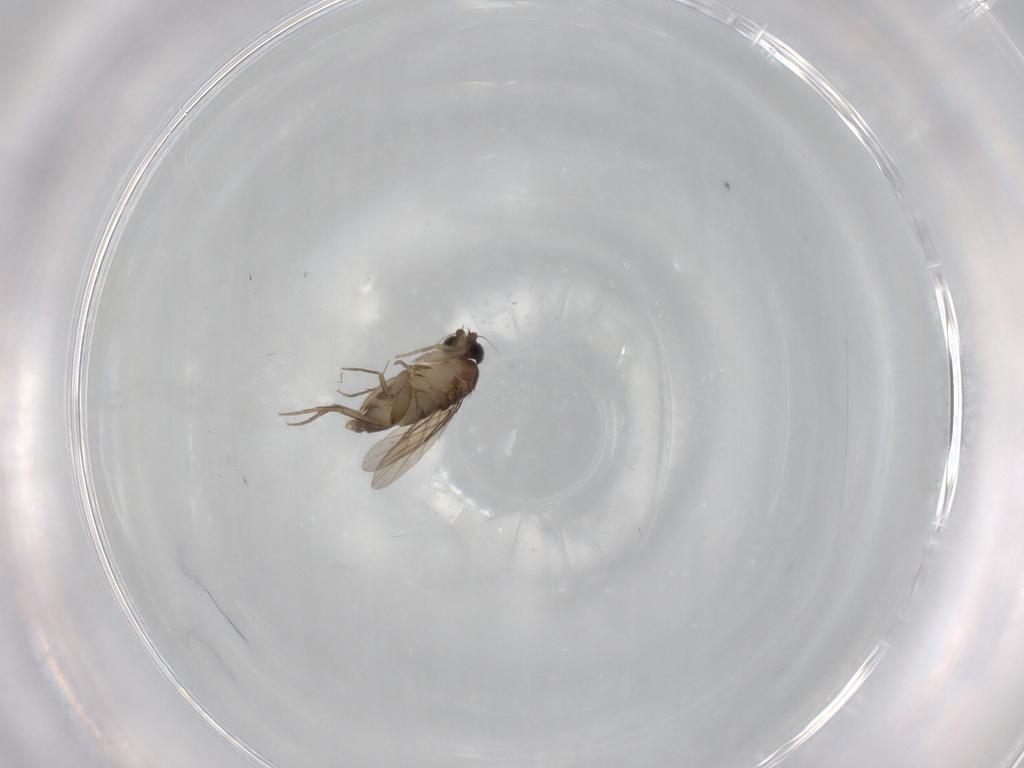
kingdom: Animalia
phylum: Arthropoda
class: Insecta
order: Diptera
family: Phoridae
